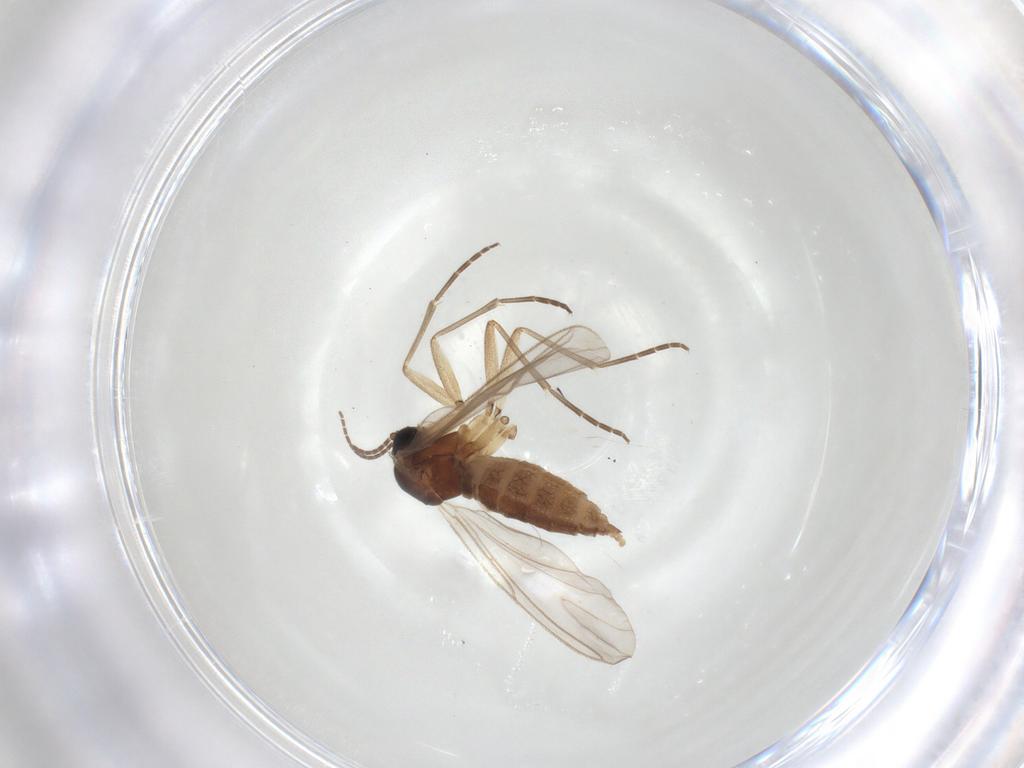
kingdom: Animalia
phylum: Arthropoda
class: Insecta
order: Diptera
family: Sciaridae
